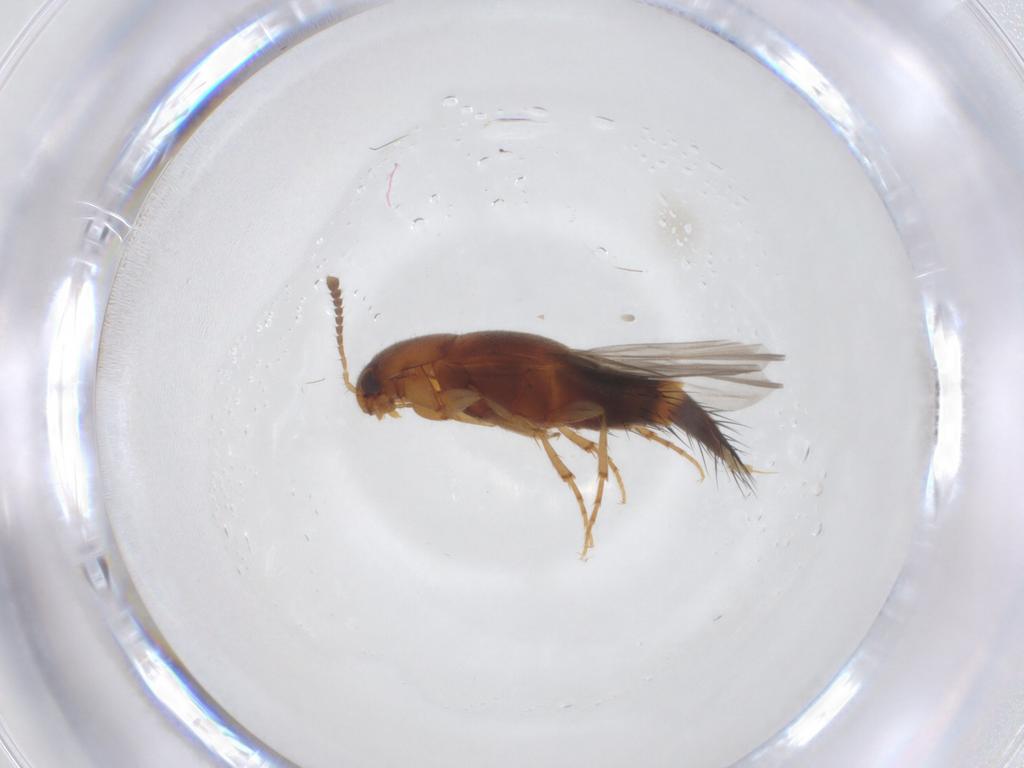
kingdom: Animalia
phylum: Arthropoda
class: Insecta
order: Coleoptera
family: Staphylinidae
